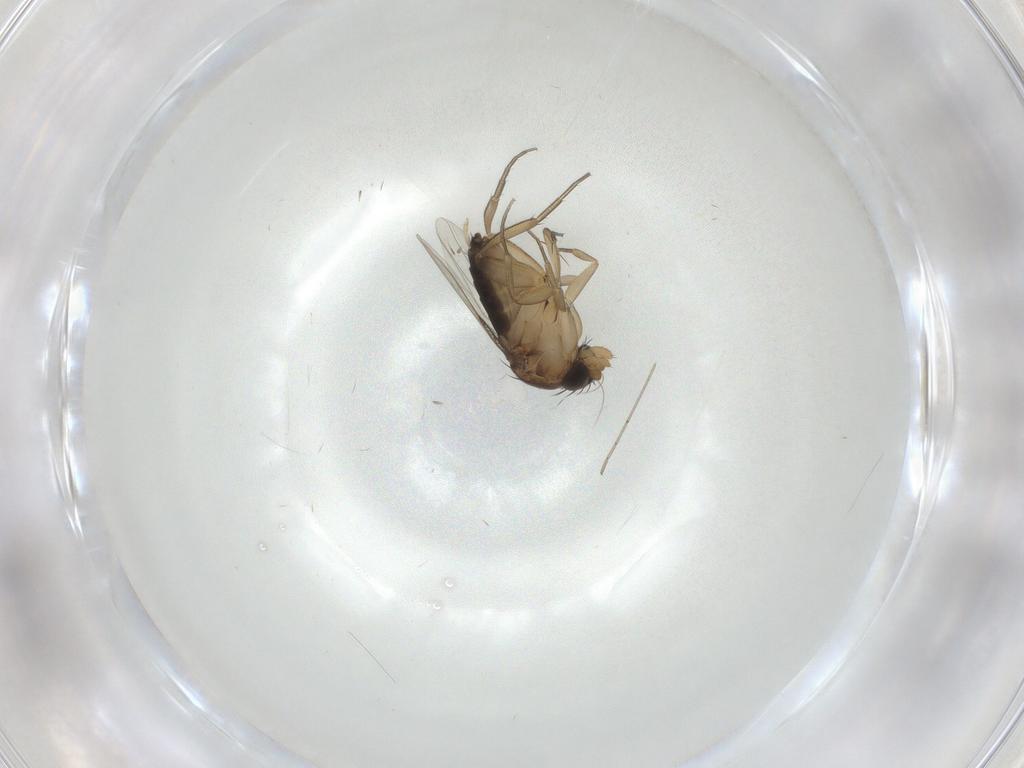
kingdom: Animalia
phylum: Arthropoda
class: Insecta
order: Diptera
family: Phoridae
